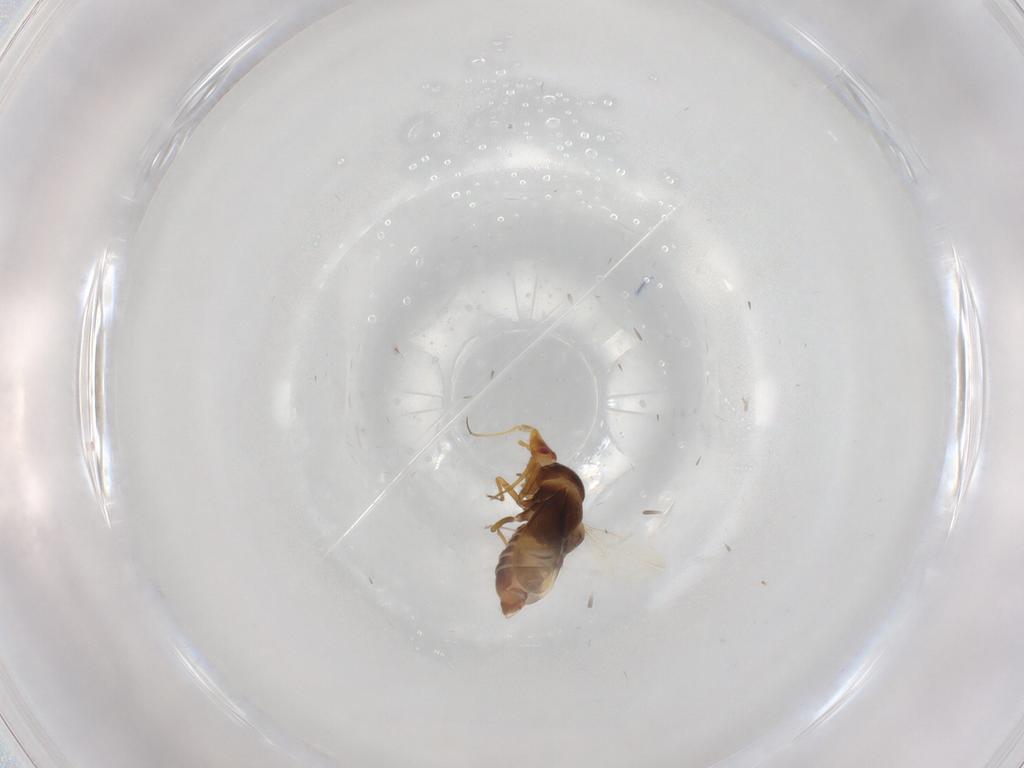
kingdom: Animalia
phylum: Arthropoda
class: Insecta
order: Hemiptera
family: Schizopteridae
